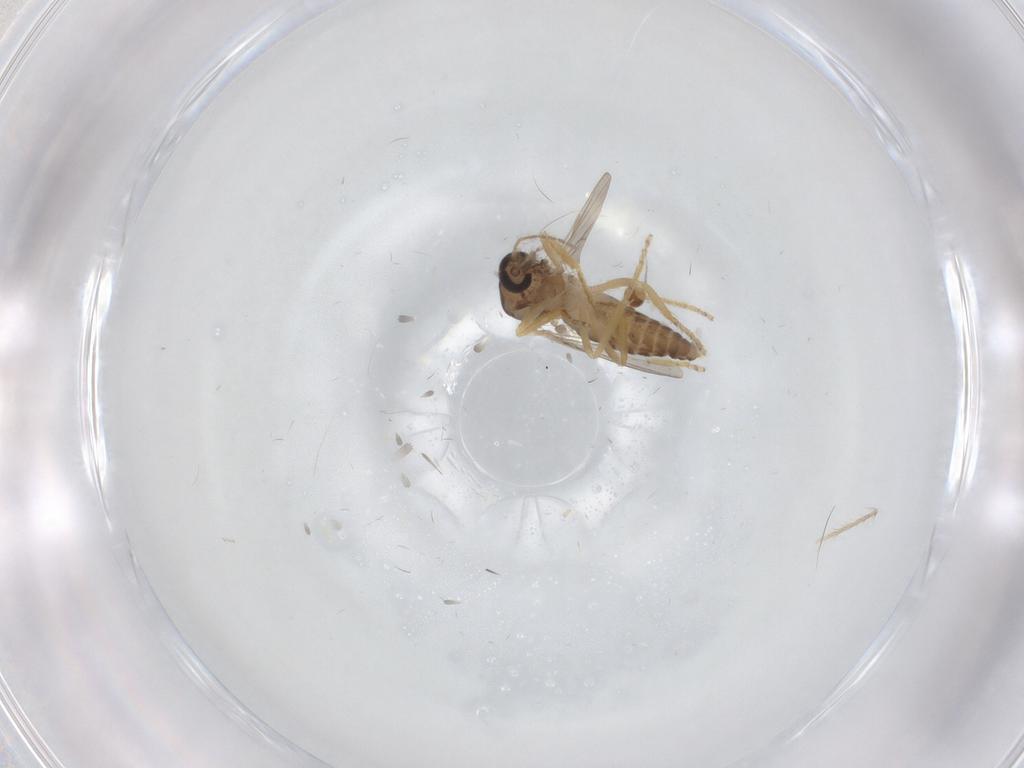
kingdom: Animalia
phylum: Arthropoda
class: Insecta
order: Diptera
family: Ceratopogonidae
